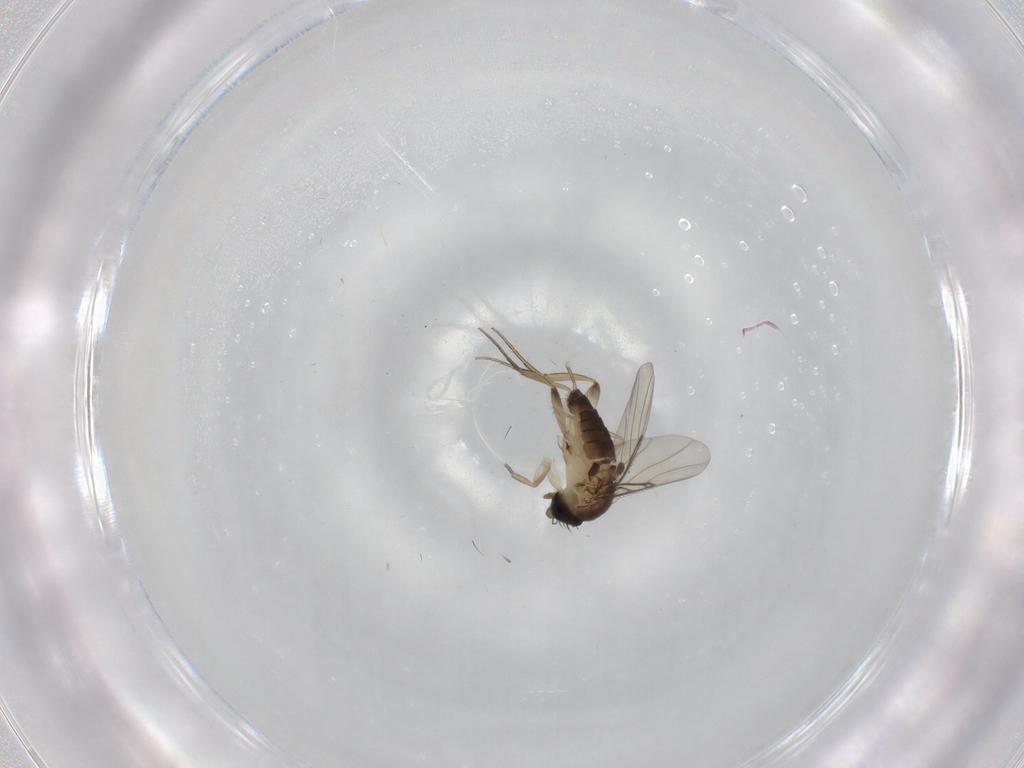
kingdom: Animalia
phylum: Arthropoda
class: Insecta
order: Diptera
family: Phoridae
